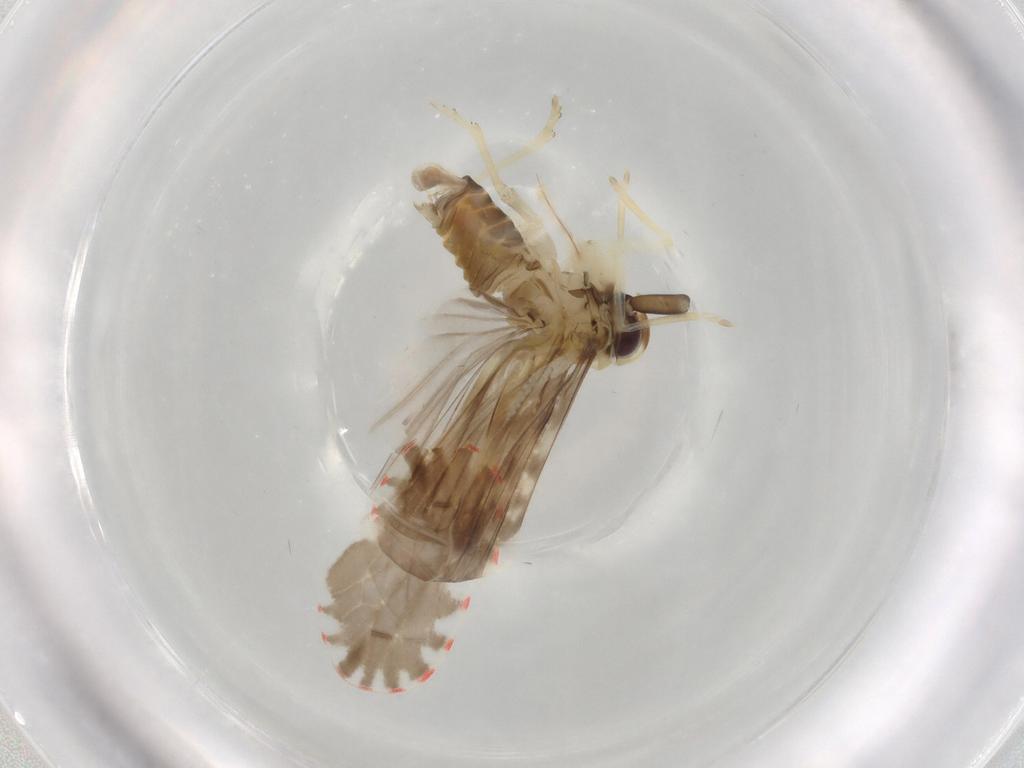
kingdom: Animalia
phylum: Arthropoda
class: Insecta
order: Hemiptera
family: Derbidae
